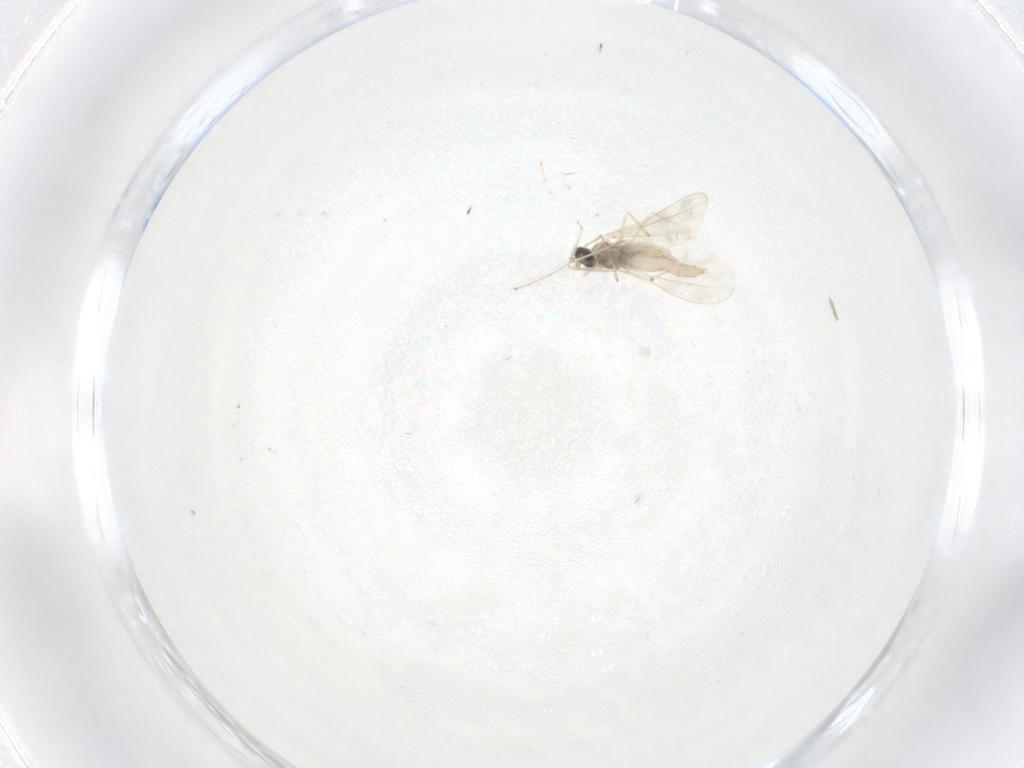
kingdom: Animalia
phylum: Arthropoda
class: Insecta
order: Diptera
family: Cecidomyiidae
